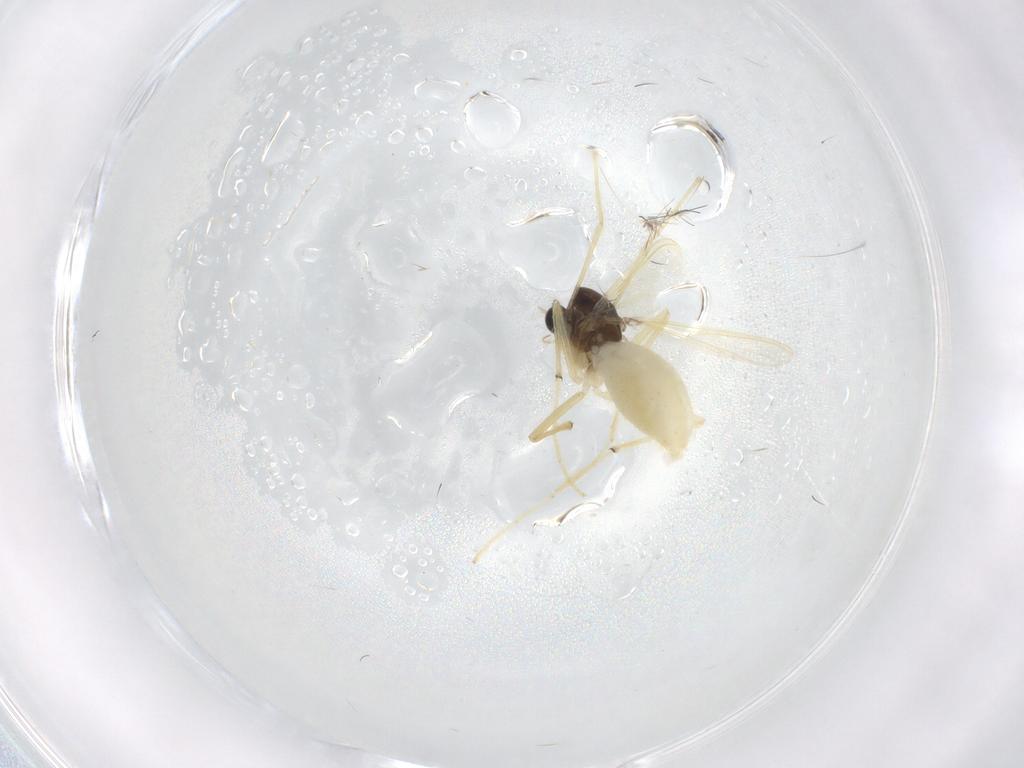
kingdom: Animalia
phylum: Arthropoda
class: Insecta
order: Diptera
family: Chironomidae
